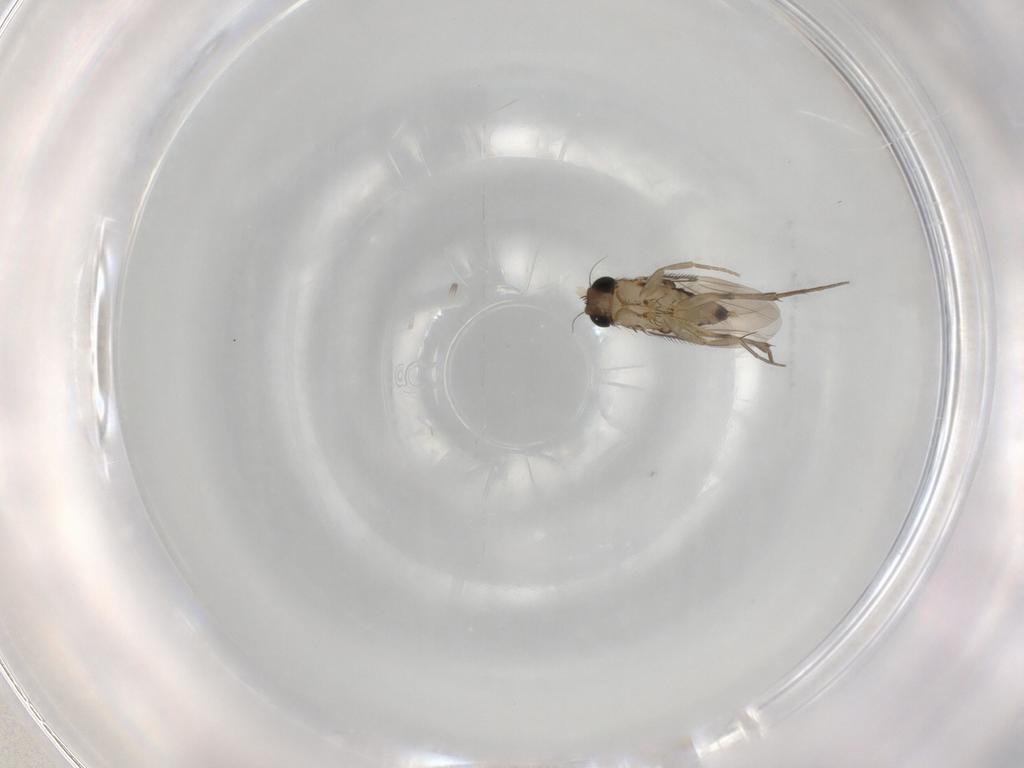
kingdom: Animalia
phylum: Arthropoda
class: Insecta
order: Diptera
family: Phoridae
